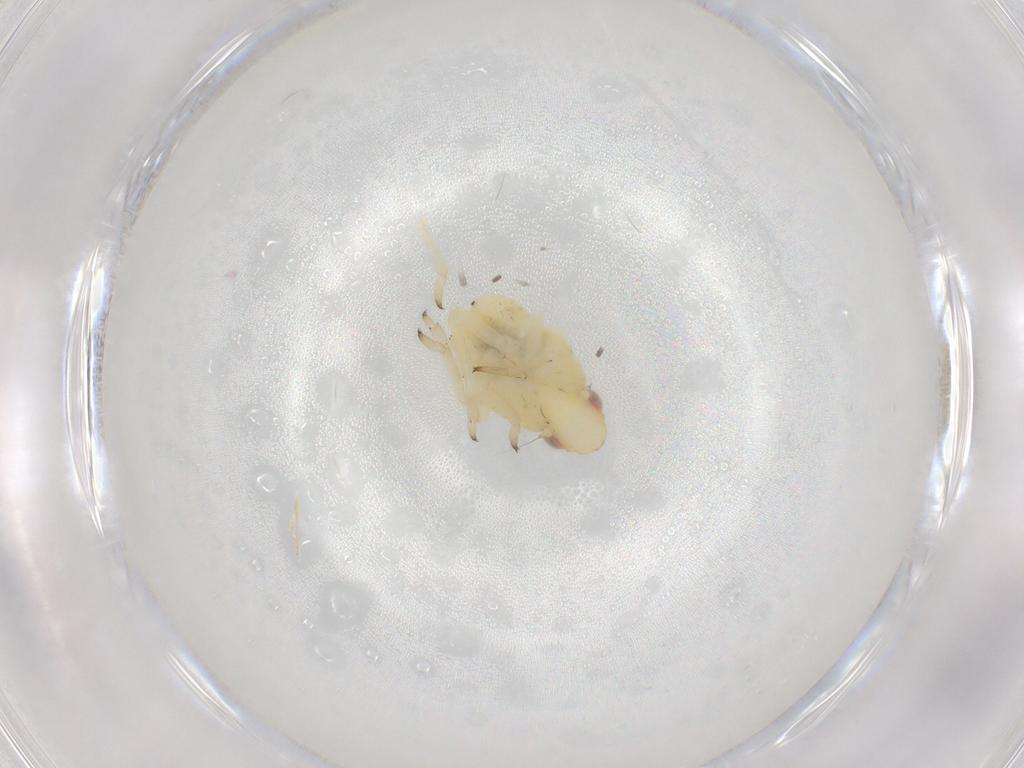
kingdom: Animalia
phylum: Arthropoda
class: Insecta
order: Hemiptera
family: Caliscelidae
